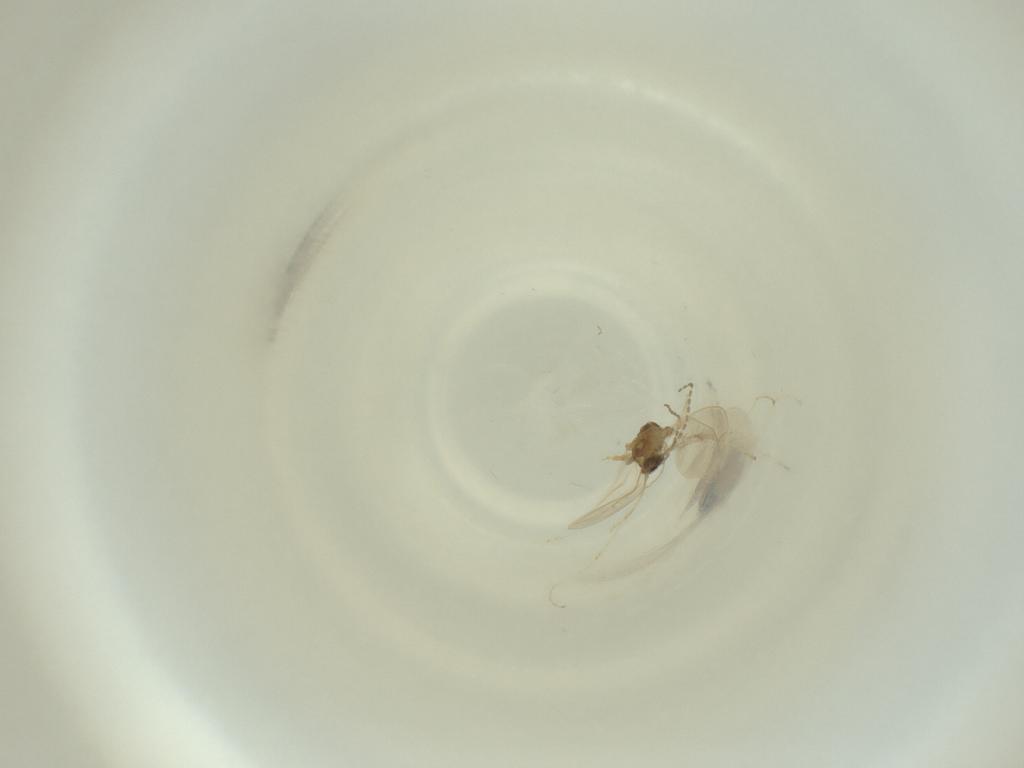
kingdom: Animalia
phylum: Arthropoda
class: Insecta
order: Diptera
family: Cecidomyiidae
